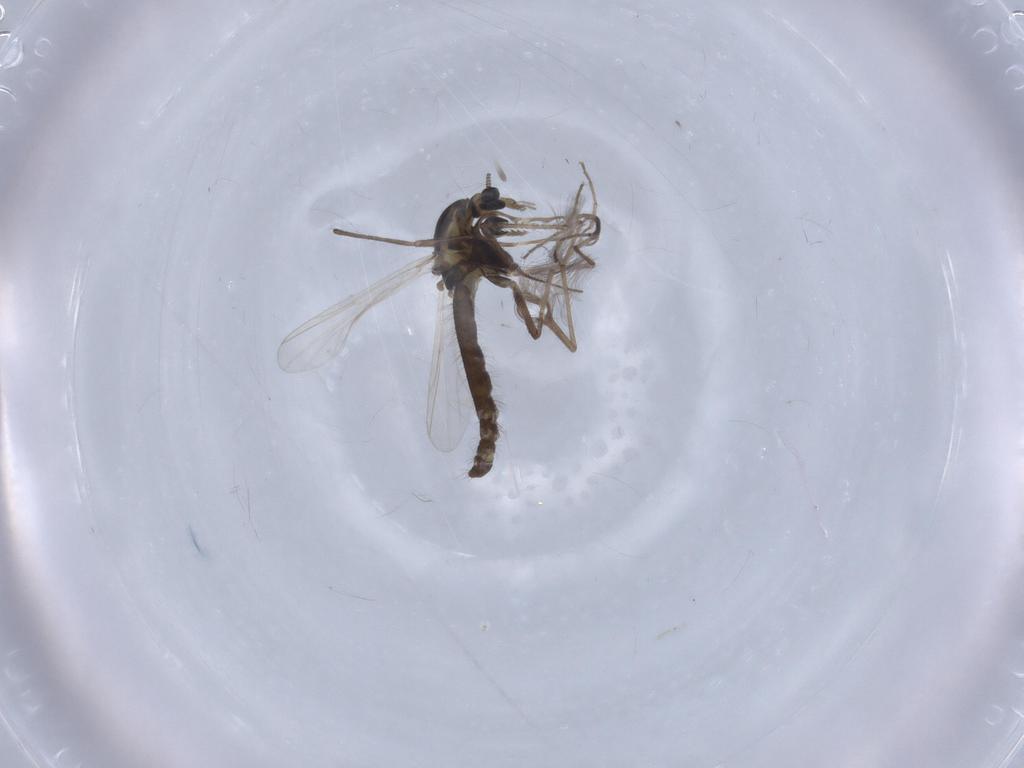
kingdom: Animalia
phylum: Arthropoda
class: Insecta
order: Diptera
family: Chironomidae
